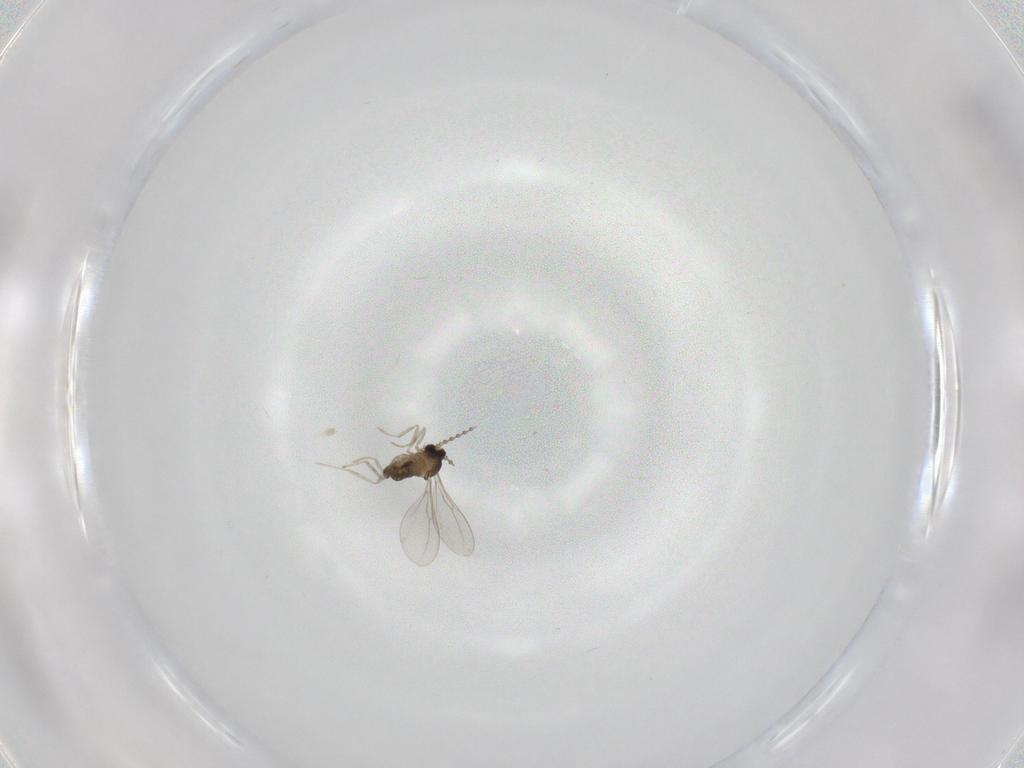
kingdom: Animalia
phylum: Arthropoda
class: Insecta
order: Diptera
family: Cecidomyiidae
